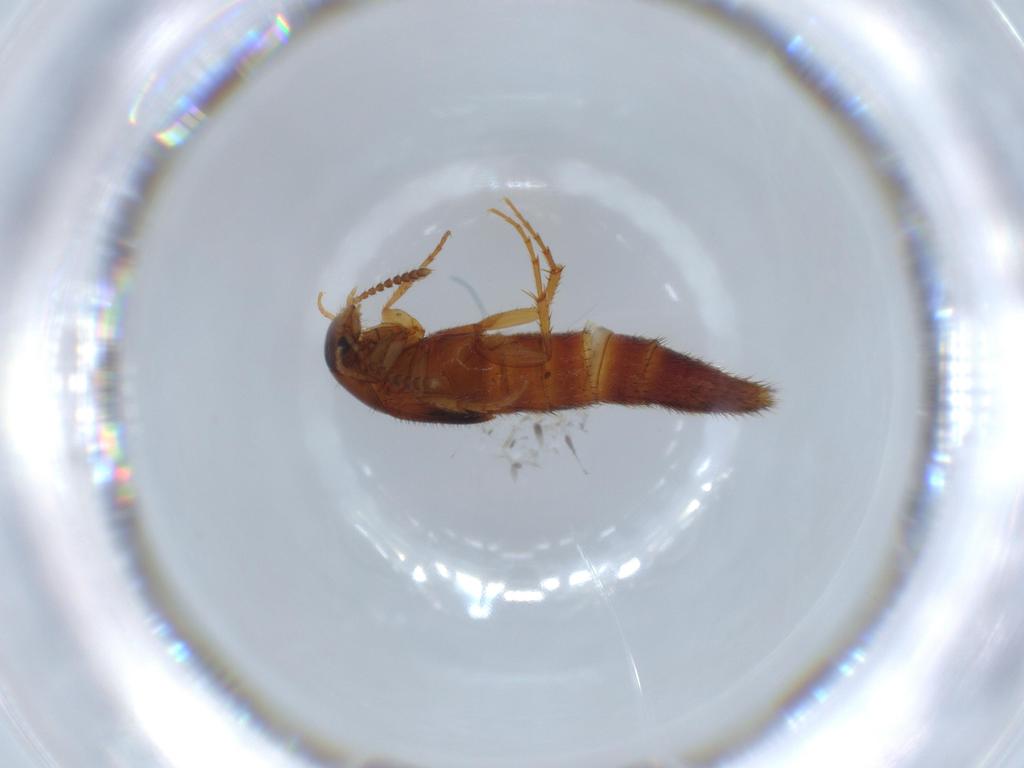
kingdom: Animalia
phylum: Arthropoda
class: Insecta
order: Coleoptera
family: Staphylinidae
